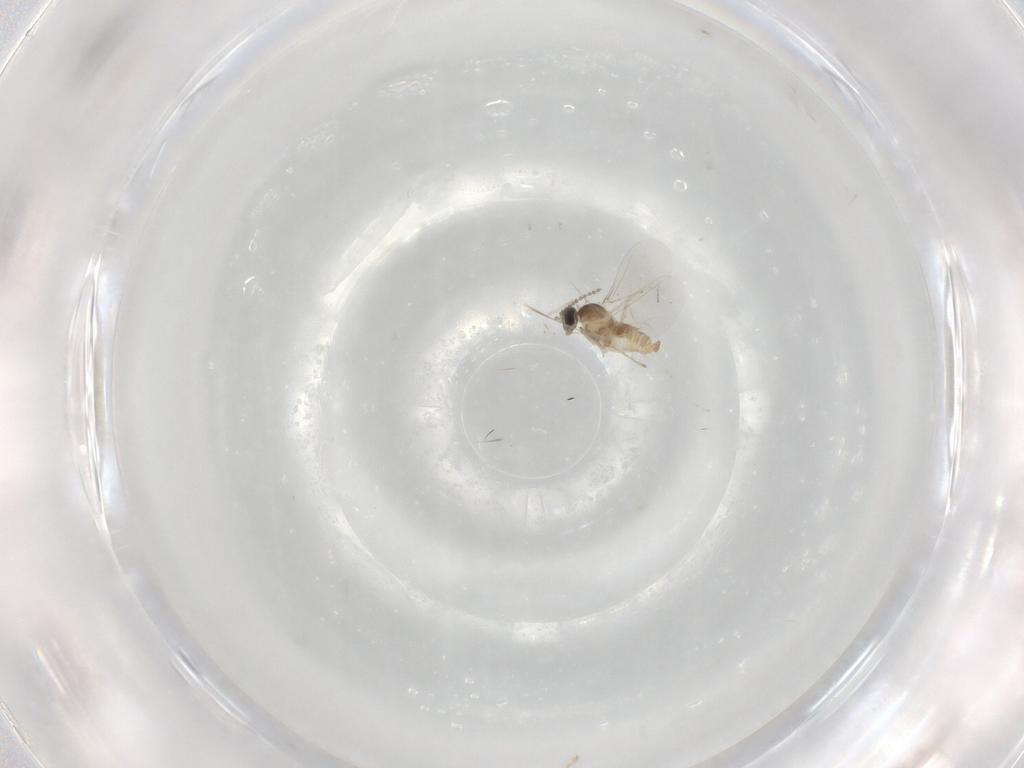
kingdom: Animalia
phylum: Arthropoda
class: Insecta
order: Diptera
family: Cecidomyiidae
